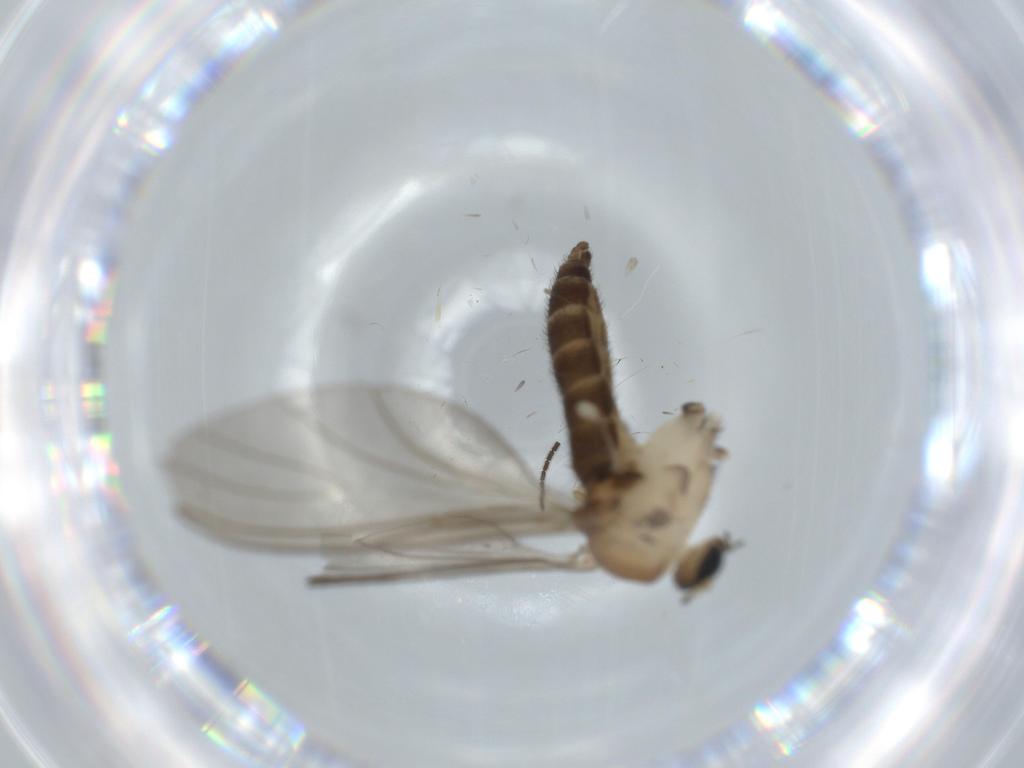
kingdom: Animalia
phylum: Arthropoda
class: Insecta
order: Diptera
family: Sciaridae
